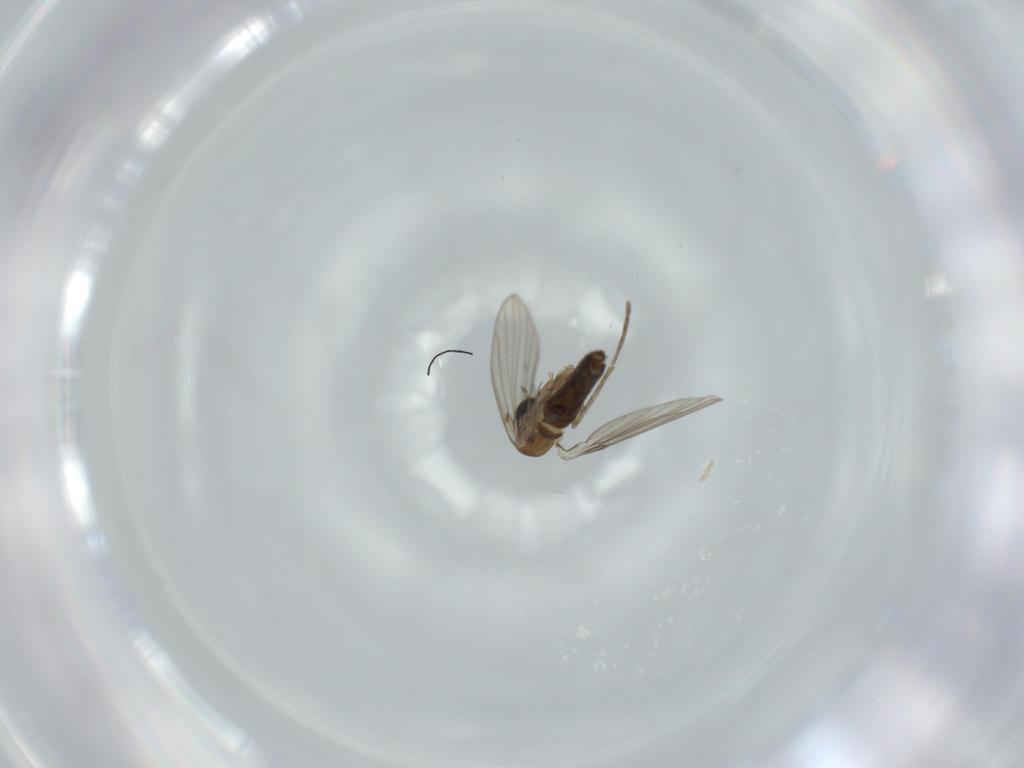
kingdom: Animalia
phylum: Arthropoda
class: Insecta
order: Diptera
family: Psychodidae
